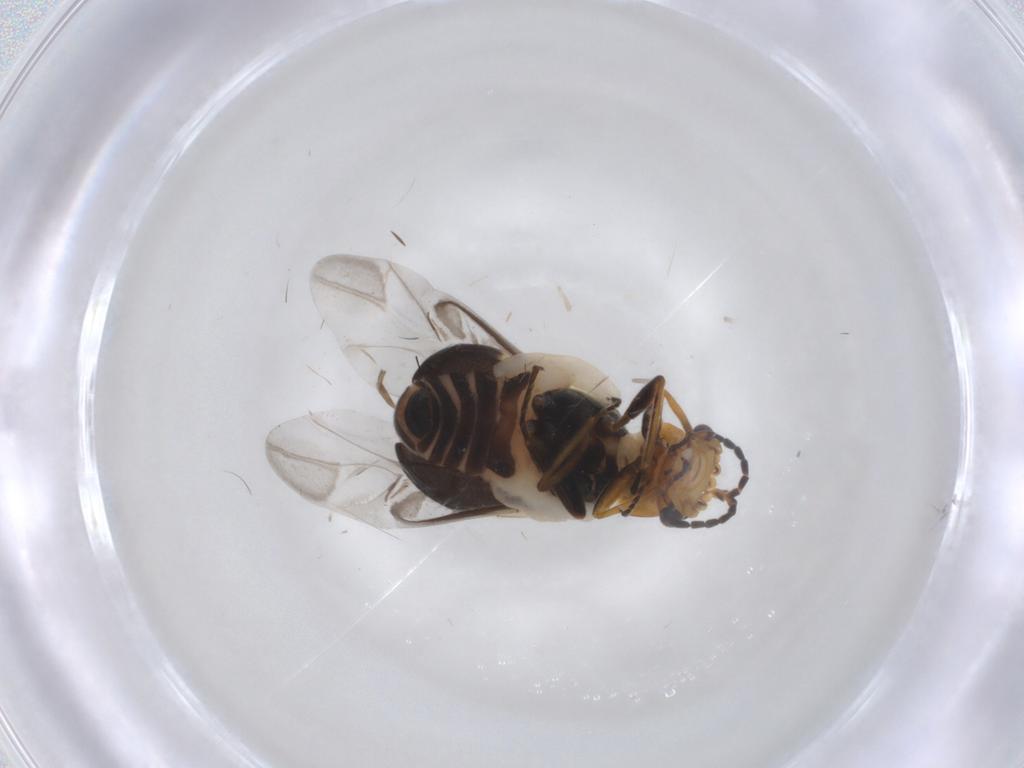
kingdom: Animalia
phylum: Arthropoda
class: Insecta
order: Coleoptera
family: Melyridae
